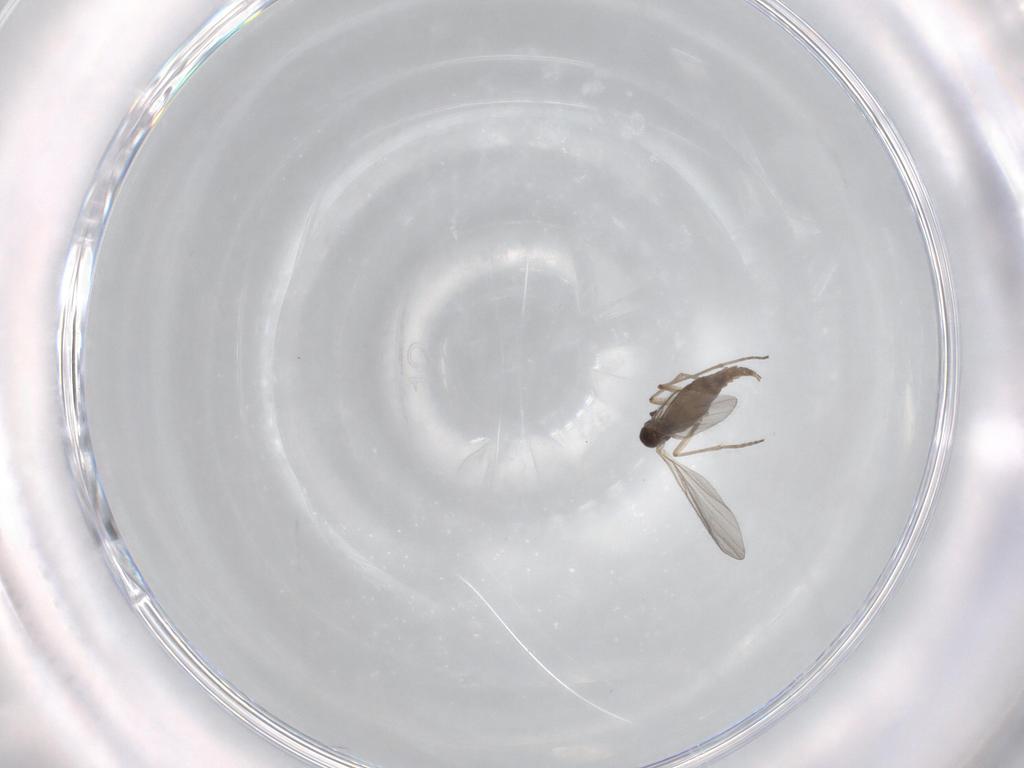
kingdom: Animalia
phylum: Arthropoda
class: Insecta
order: Diptera
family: Sciaridae
